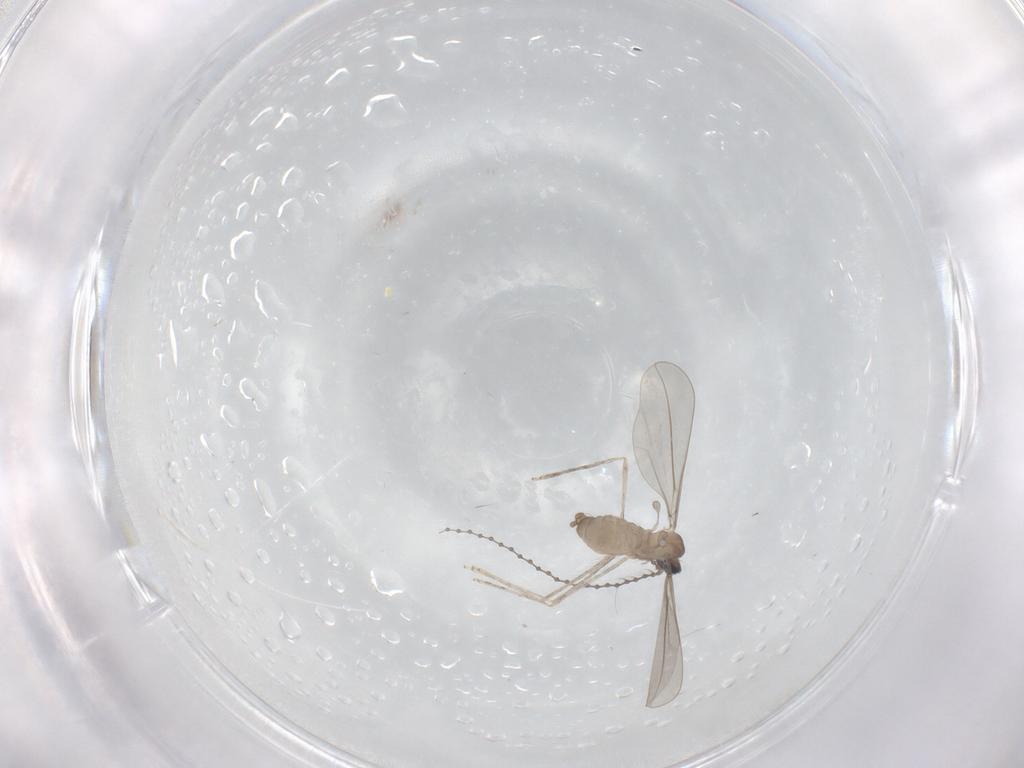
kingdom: Animalia
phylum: Arthropoda
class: Insecta
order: Diptera
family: Cecidomyiidae
